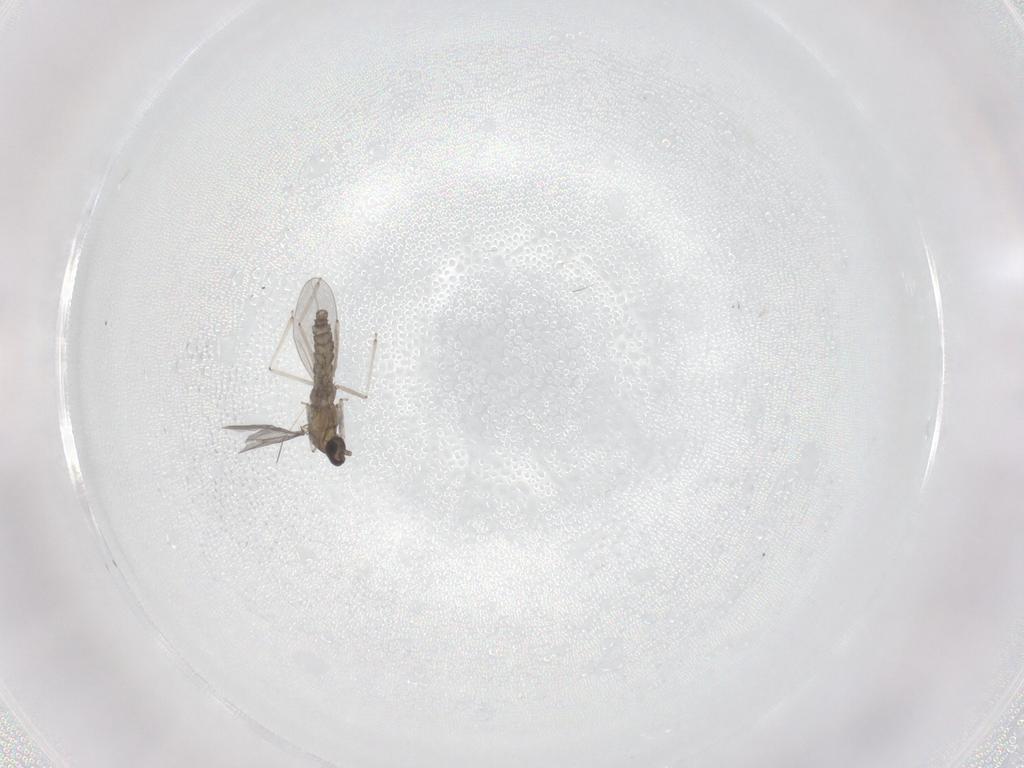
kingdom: Animalia
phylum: Arthropoda
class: Insecta
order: Diptera
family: Cecidomyiidae
